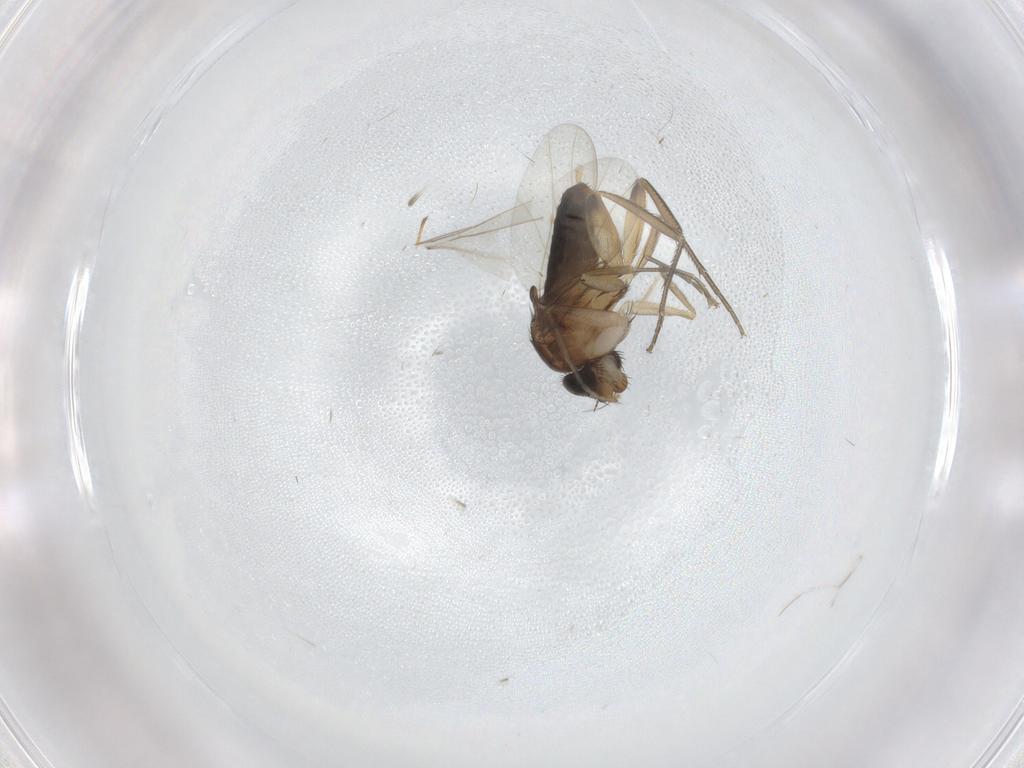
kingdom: Animalia
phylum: Arthropoda
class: Insecta
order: Diptera
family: Phoridae
